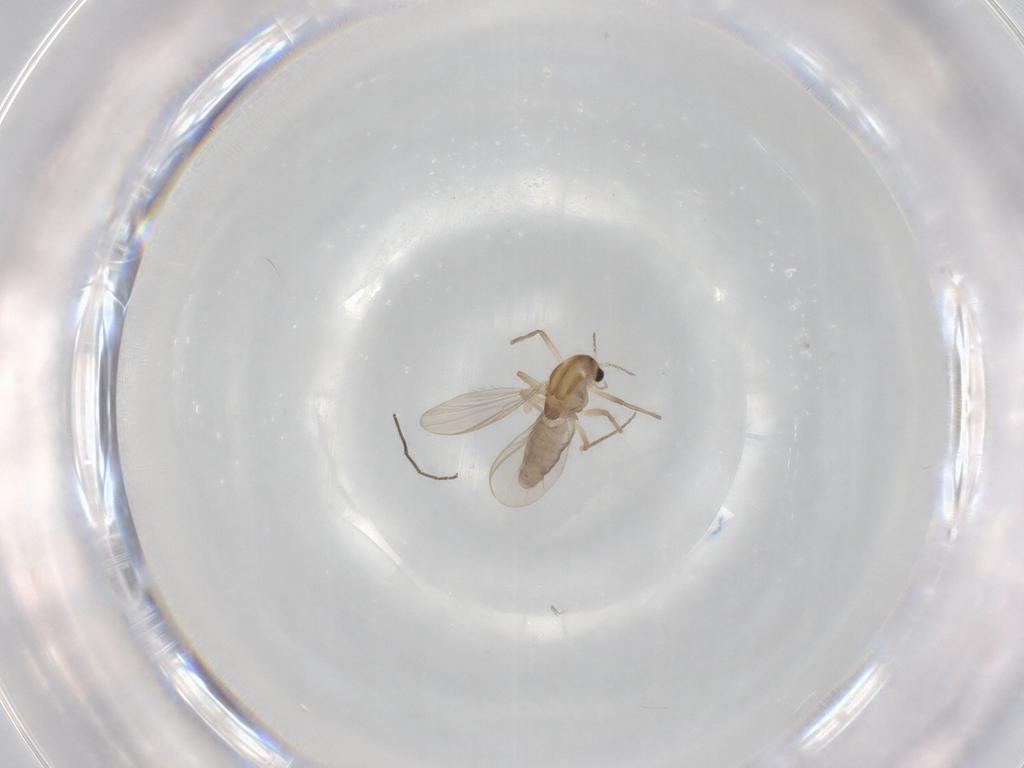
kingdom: Animalia
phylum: Arthropoda
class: Insecta
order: Diptera
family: Chironomidae
